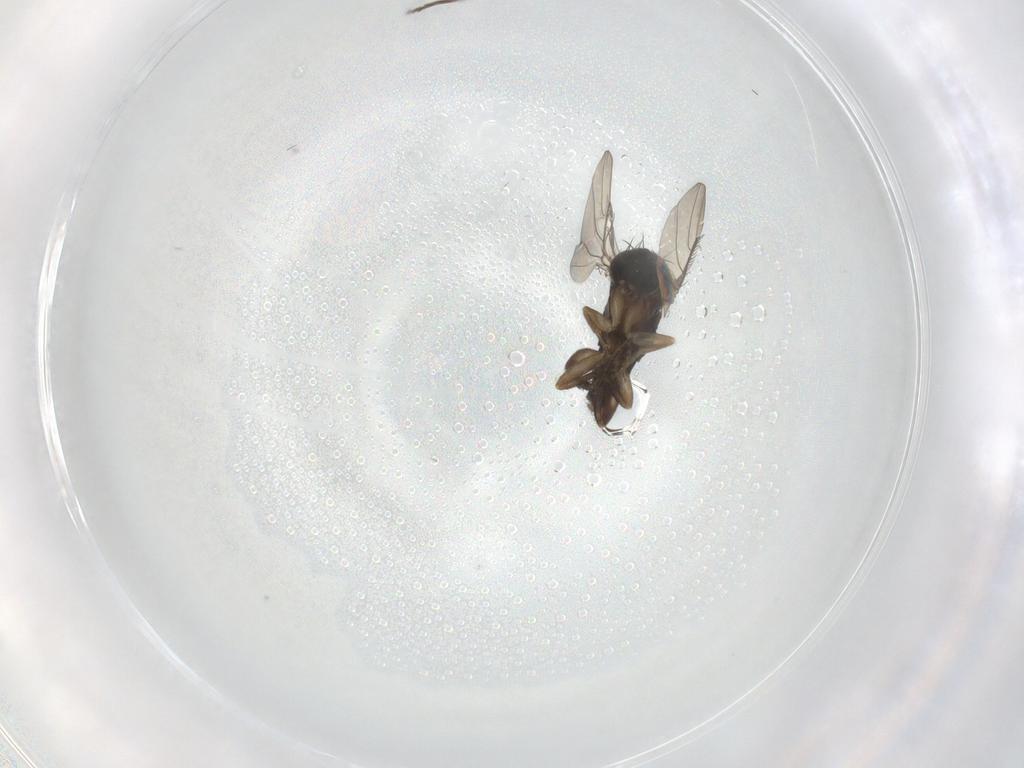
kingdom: Animalia
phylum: Arthropoda
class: Insecta
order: Diptera
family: Phoridae
